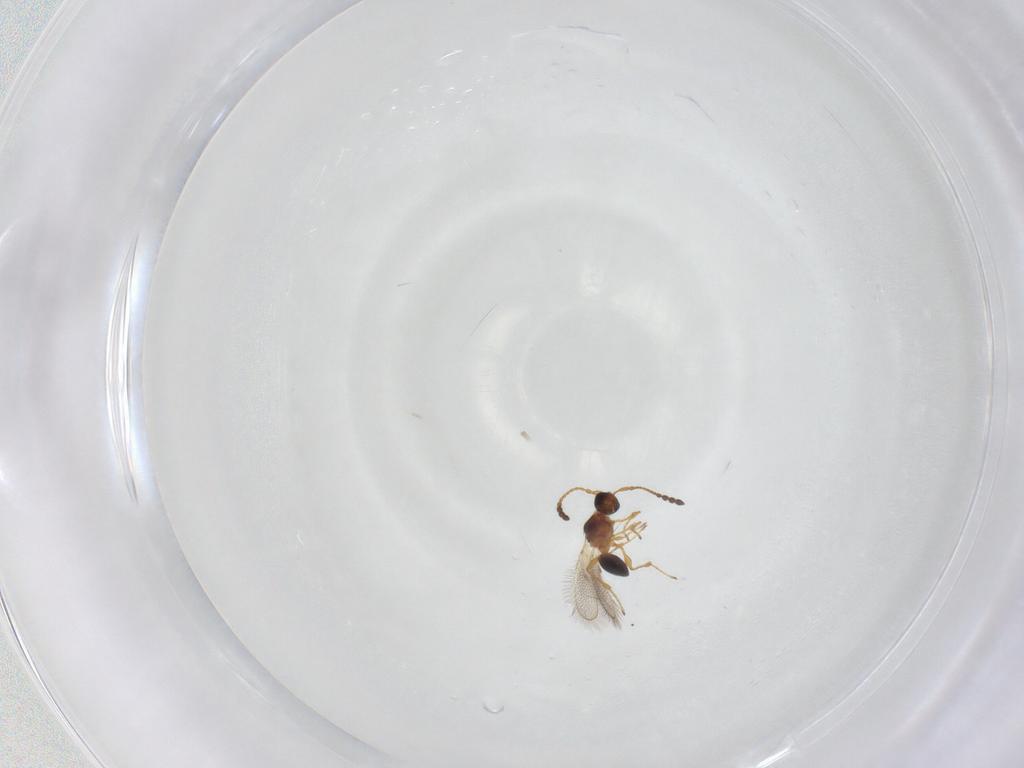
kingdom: Animalia
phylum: Arthropoda
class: Insecta
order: Hymenoptera
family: Diapriidae
